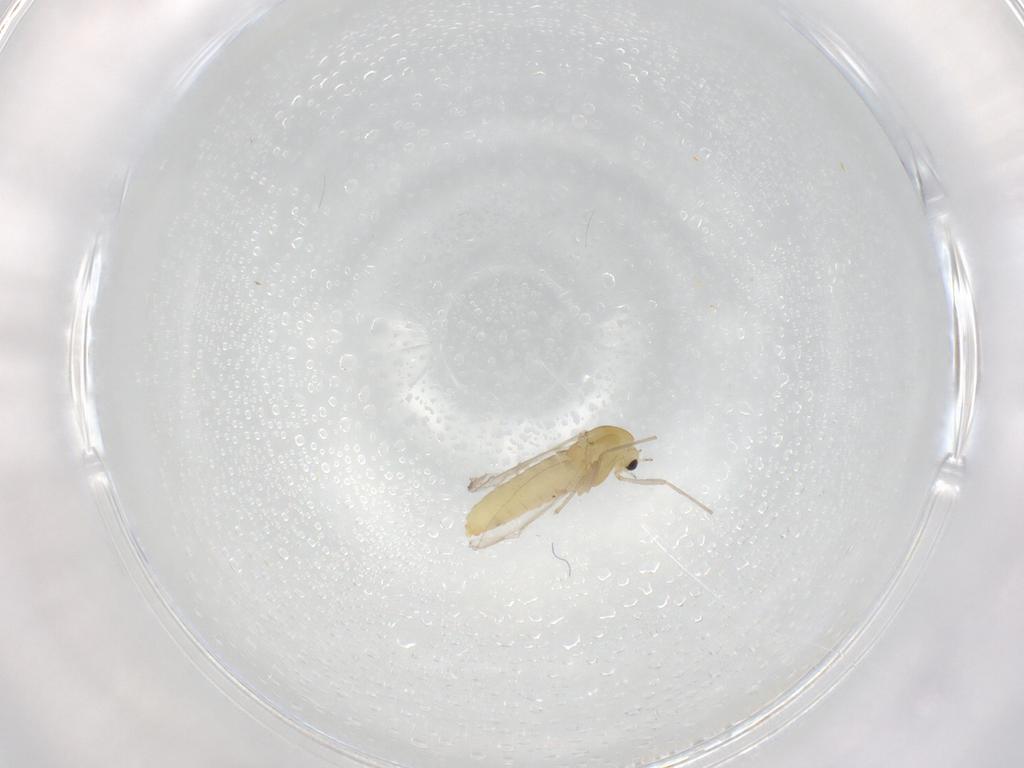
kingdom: Animalia
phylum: Arthropoda
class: Insecta
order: Diptera
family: Chironomidae
